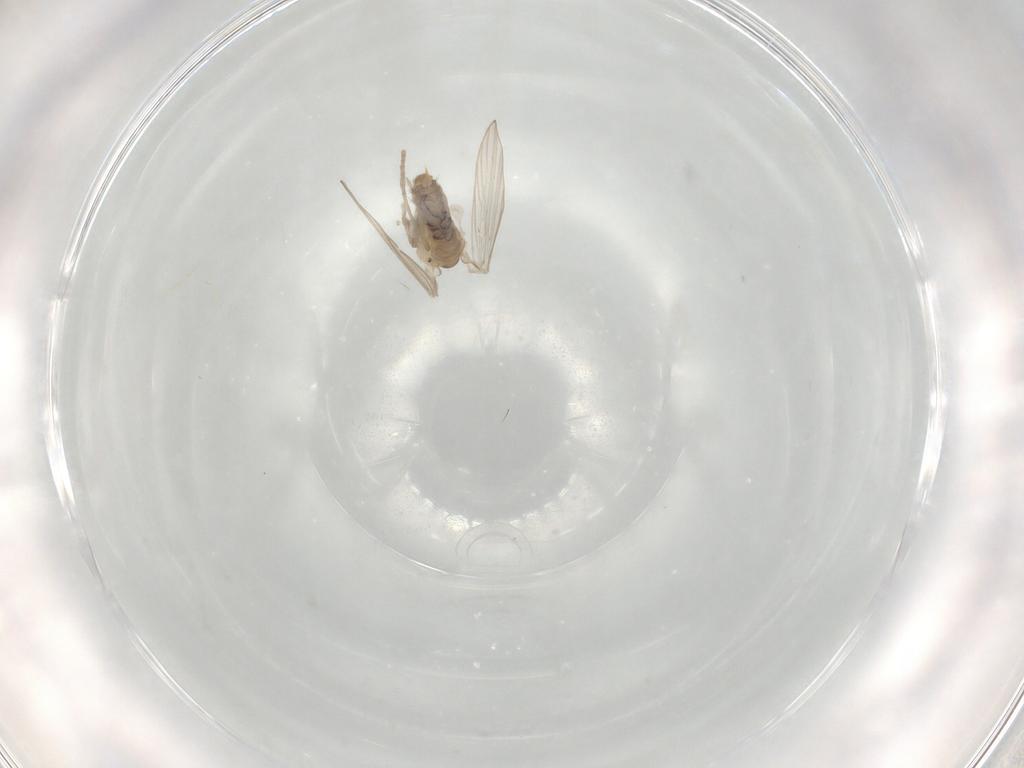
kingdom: Animalia
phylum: Arthropoda
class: Insecta
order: Diptera
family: Psychodidae
